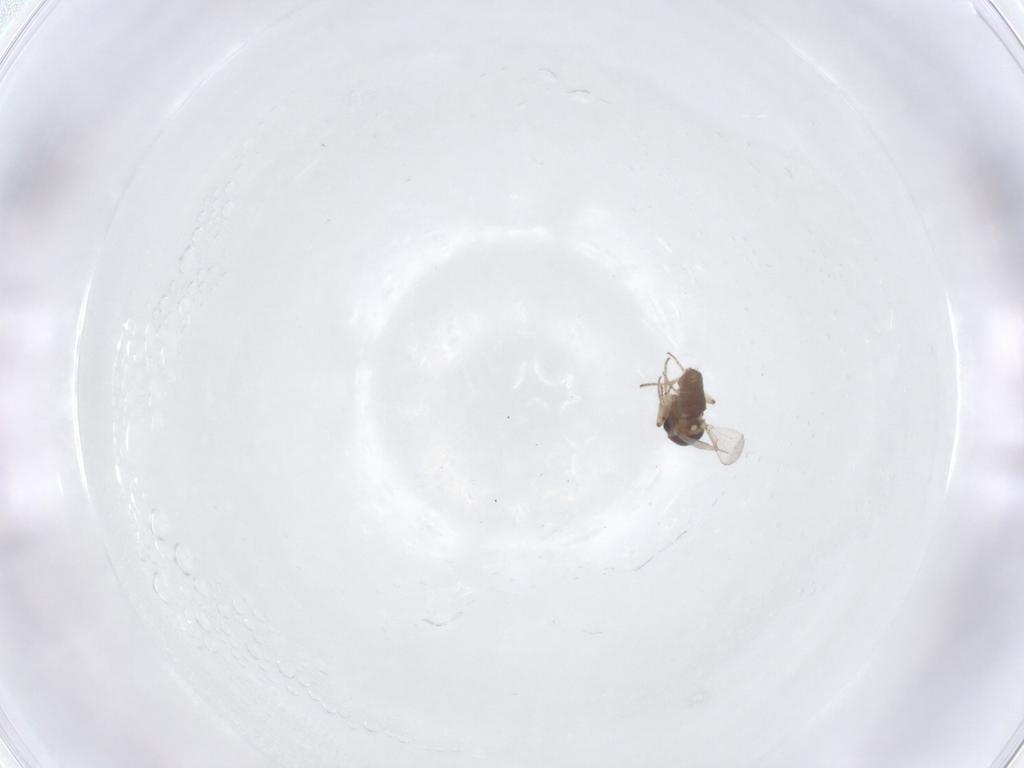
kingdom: Animalia
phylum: Arthropoda
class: Insecta
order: Diptera
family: Ceratopogonidae
